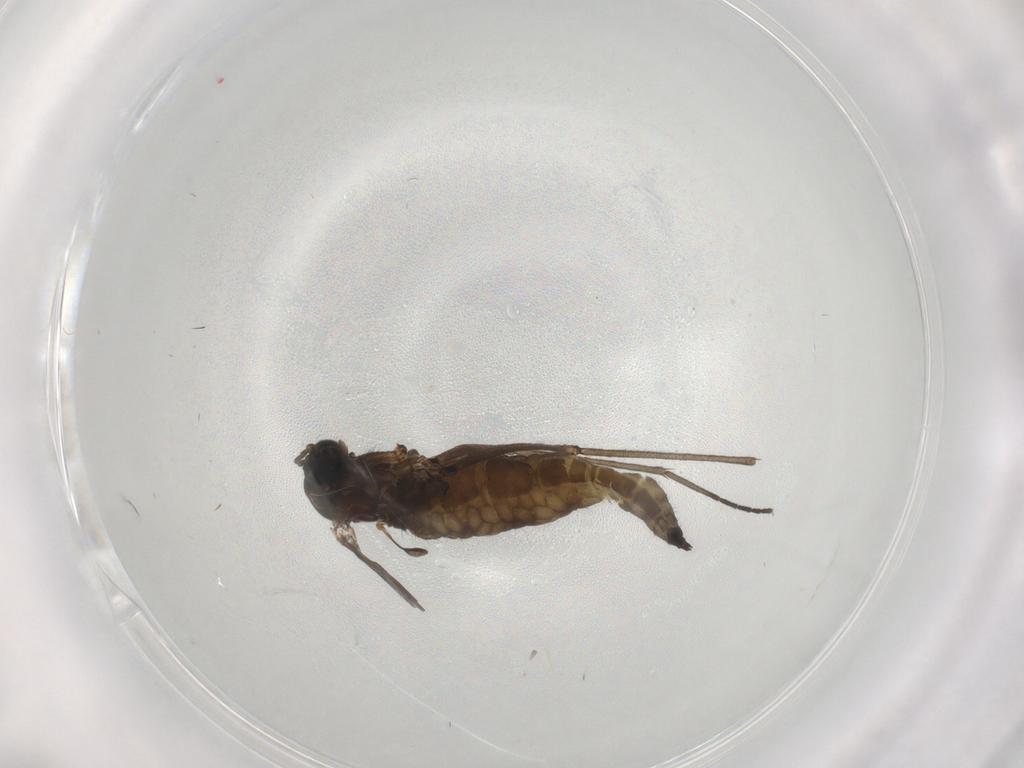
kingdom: Animalia
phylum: Arthropoda
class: Insecta
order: Diptera
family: Sciaridae
